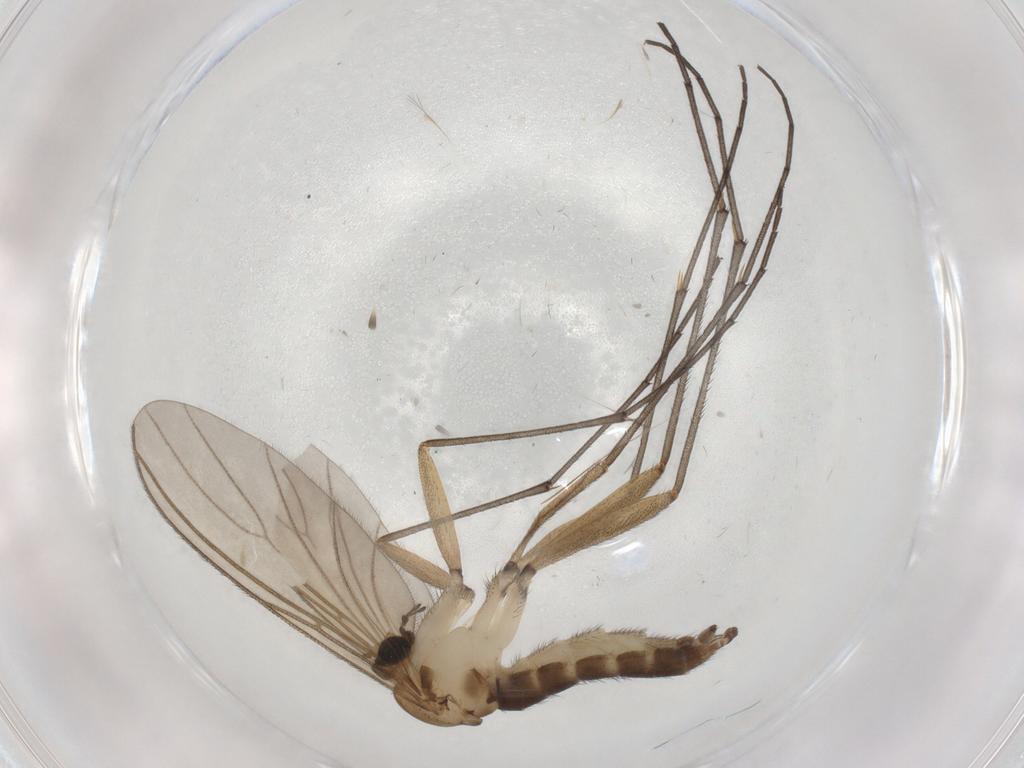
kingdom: Animalia
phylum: Arthropoda
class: Insecta
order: Diptera
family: Sciaridae
